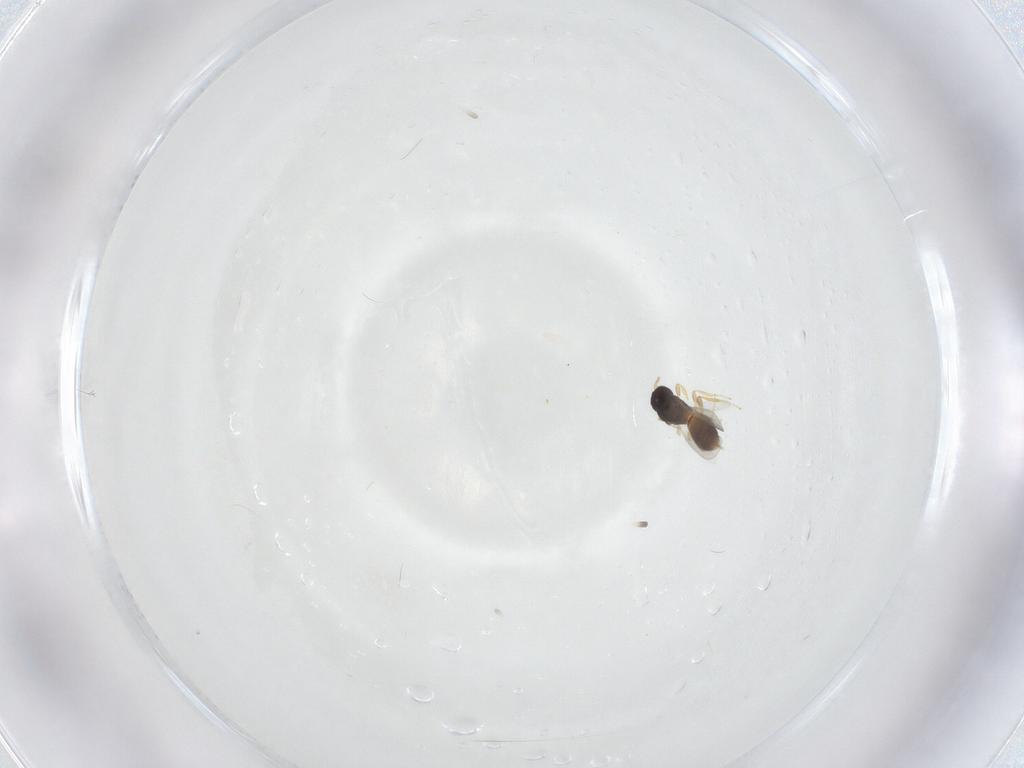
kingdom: Animalia
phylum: Arthropoda
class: Insecta
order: Hymenoptera
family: Platygastridae
